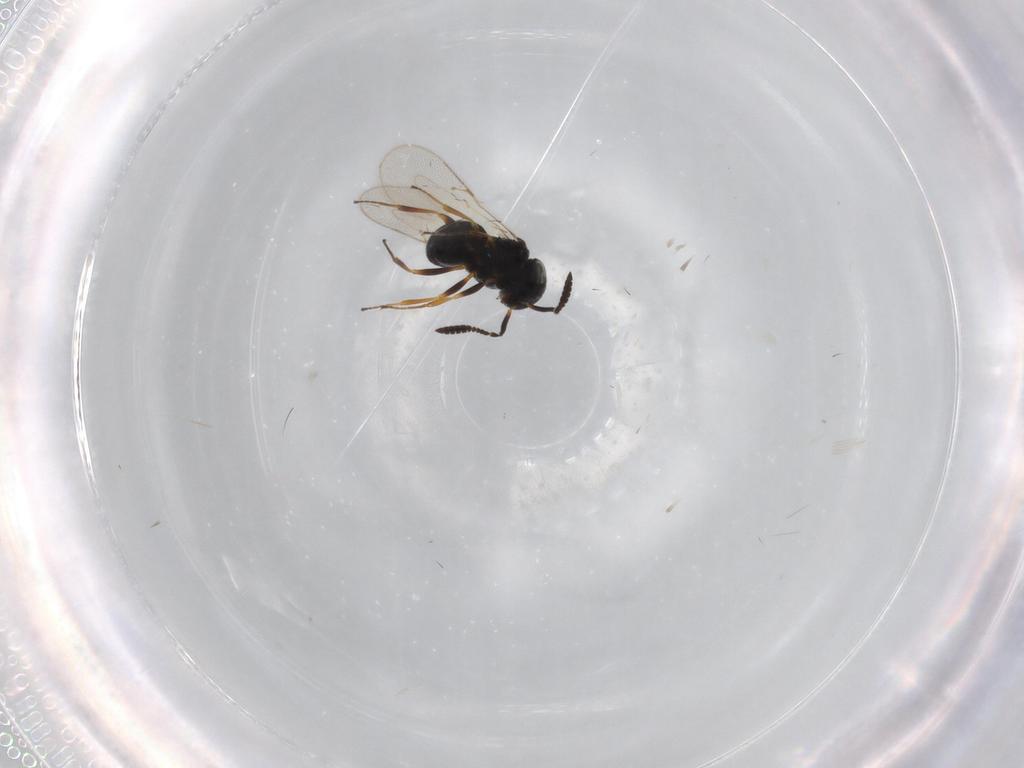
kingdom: Animalia
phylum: Arthropoda
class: Insecta
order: Hymenoptera
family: Scelionidae
